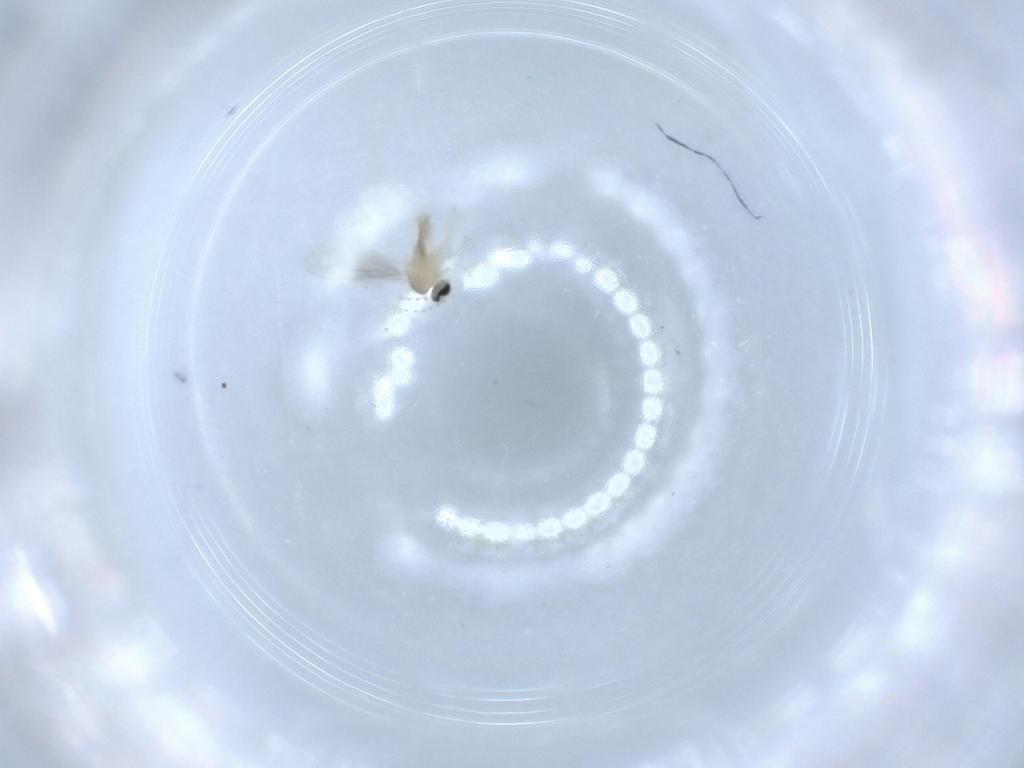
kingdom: Animalia
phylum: Arthropoda
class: Insecta
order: Diptera
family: Cecidomyiidae
